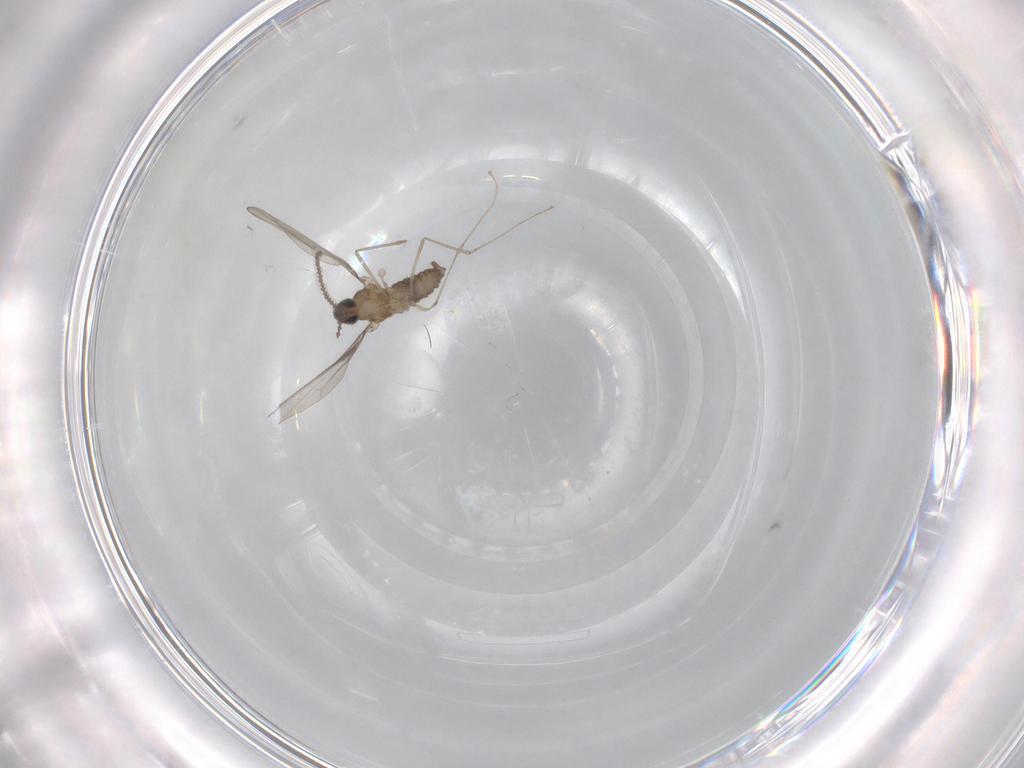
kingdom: Animalia
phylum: Arthropoda
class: Insecta
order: Diptera
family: Cecidomyiidae
